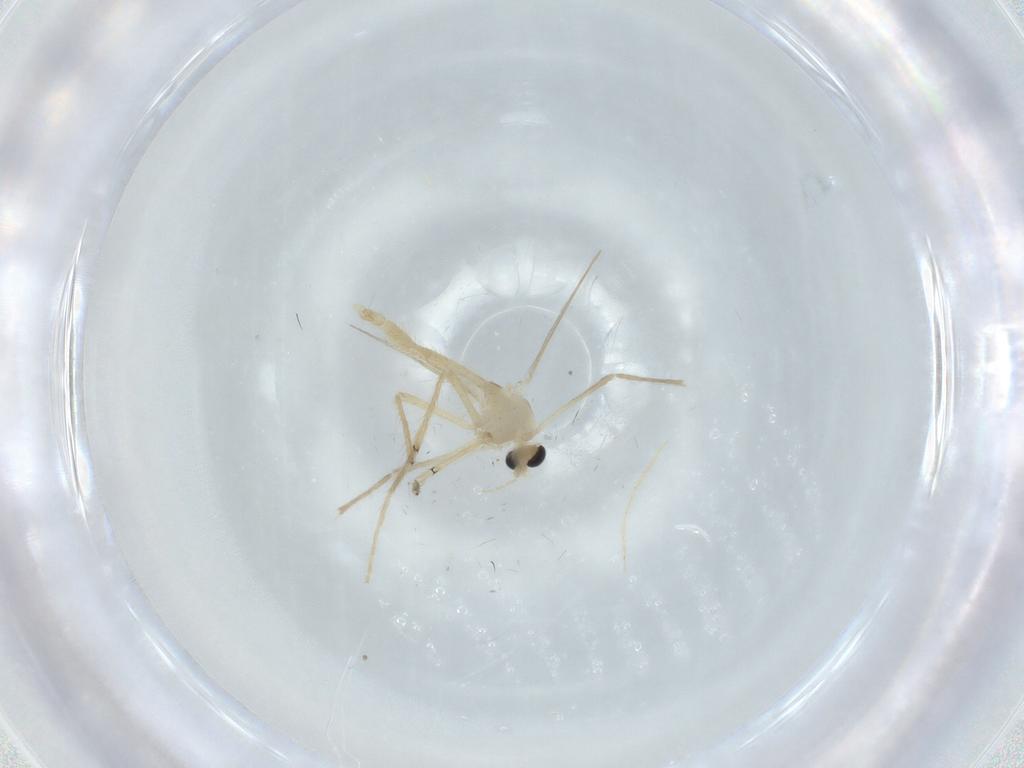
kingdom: Animalia
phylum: Arthropoda
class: Insecta
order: Diptera
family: Chironomidae
